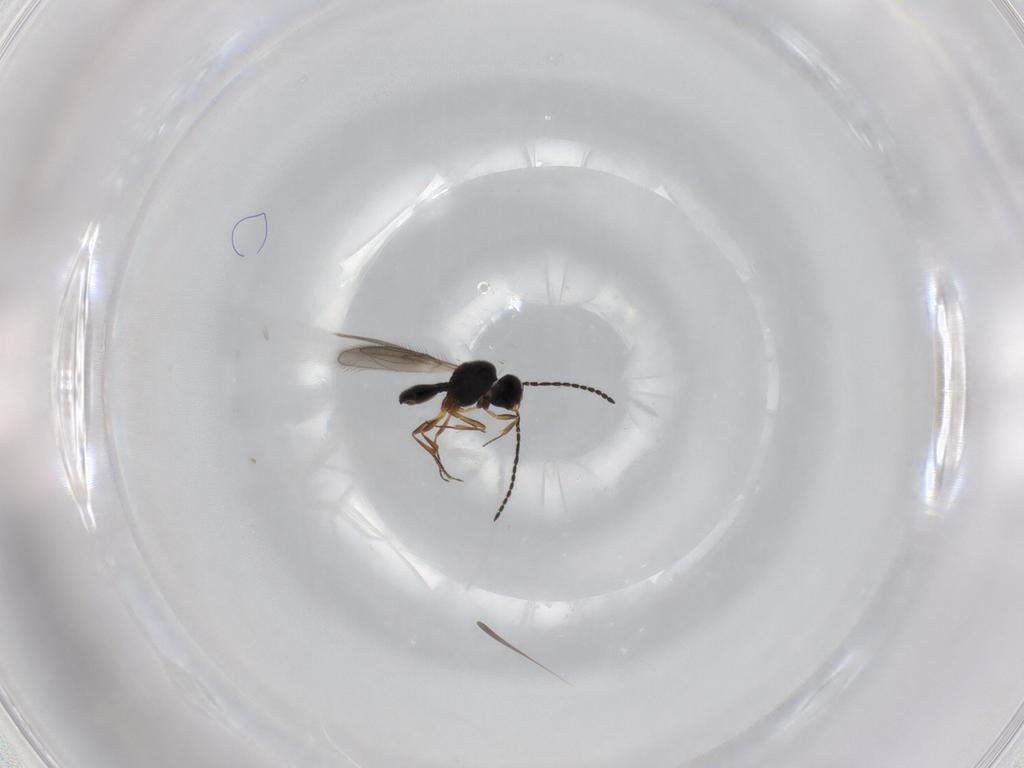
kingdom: Animalia
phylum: Arthropoda
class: Insecta
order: Hymenoptera
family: Scelionidae
